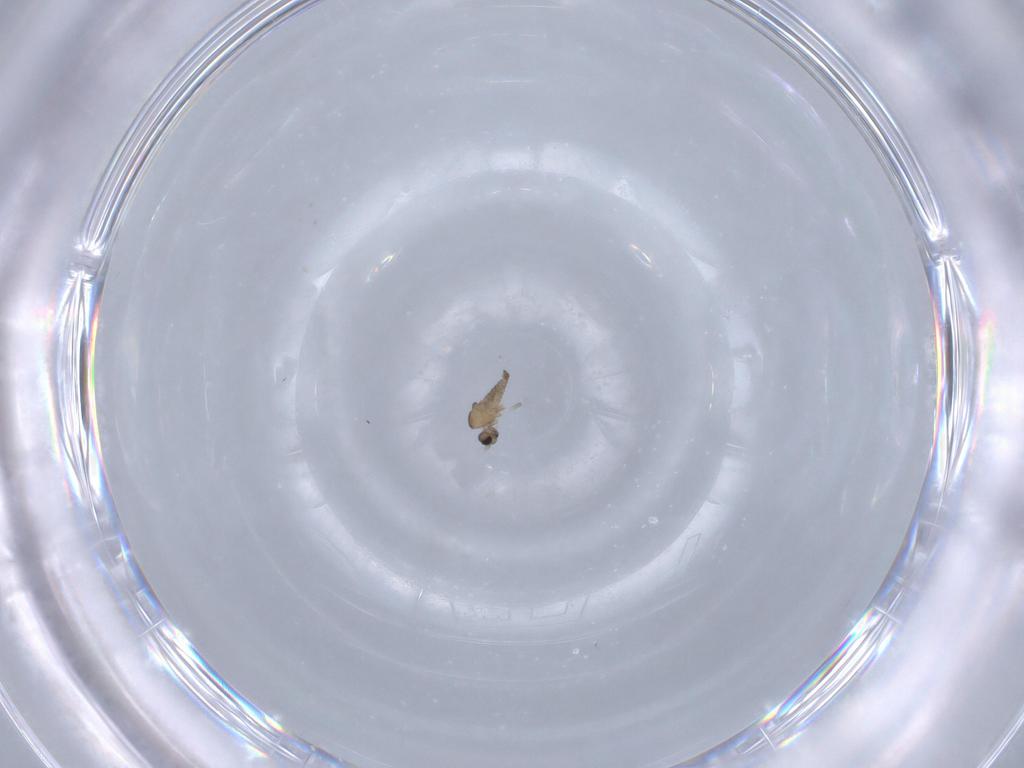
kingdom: Animalia
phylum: Arthropoda
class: Insecta
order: Diptera
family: Cecidomyiidae
